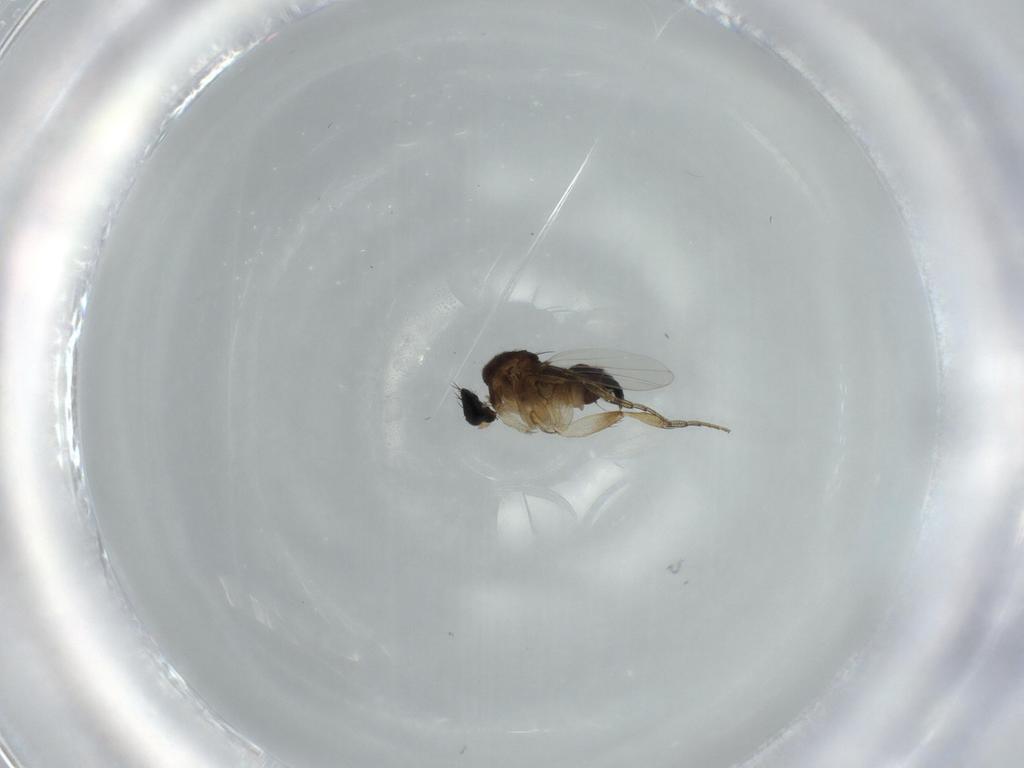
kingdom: Animalia
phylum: Arthropoda
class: Insecta
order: Diptera
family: Phoridae
